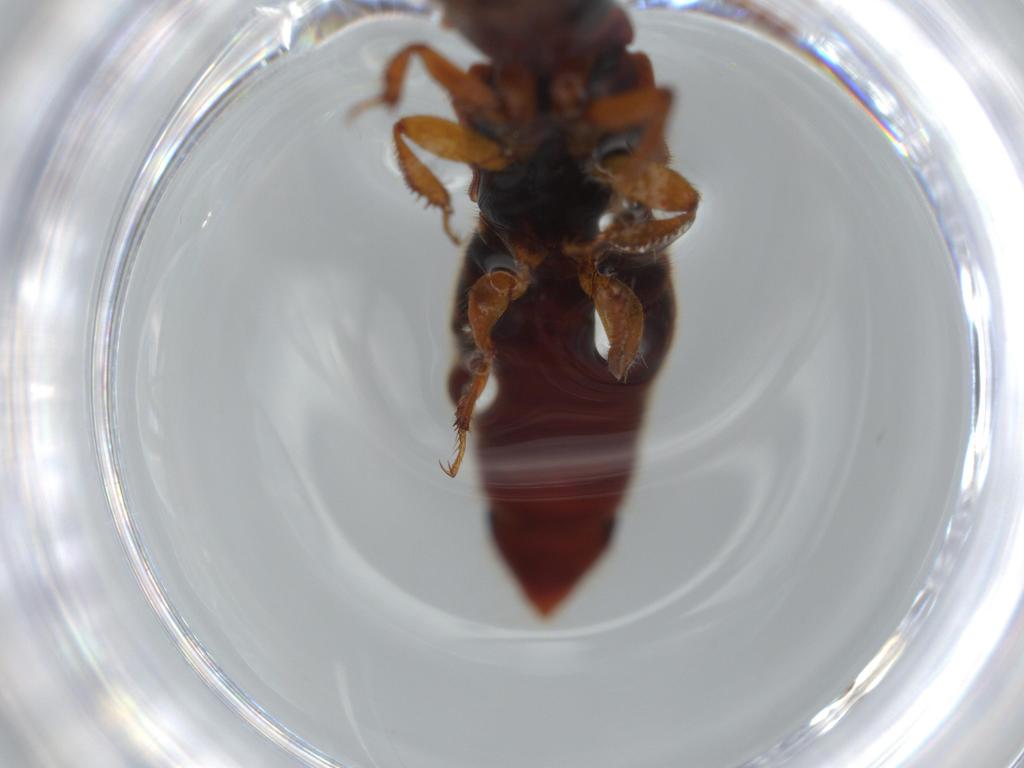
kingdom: Animalia
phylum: Arthropoda
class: Insecta
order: Coleoptera
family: Staphylinidae
